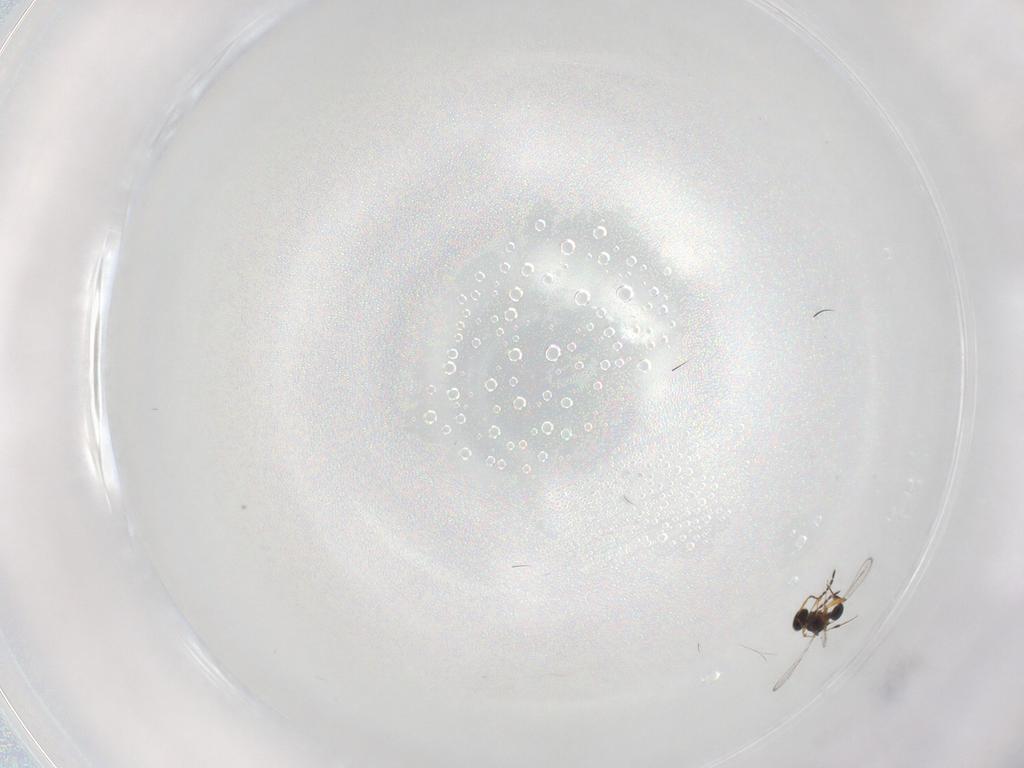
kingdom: Animalia
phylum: Arthropoda
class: Insecta
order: Hymenoptera
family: Platygastridae
